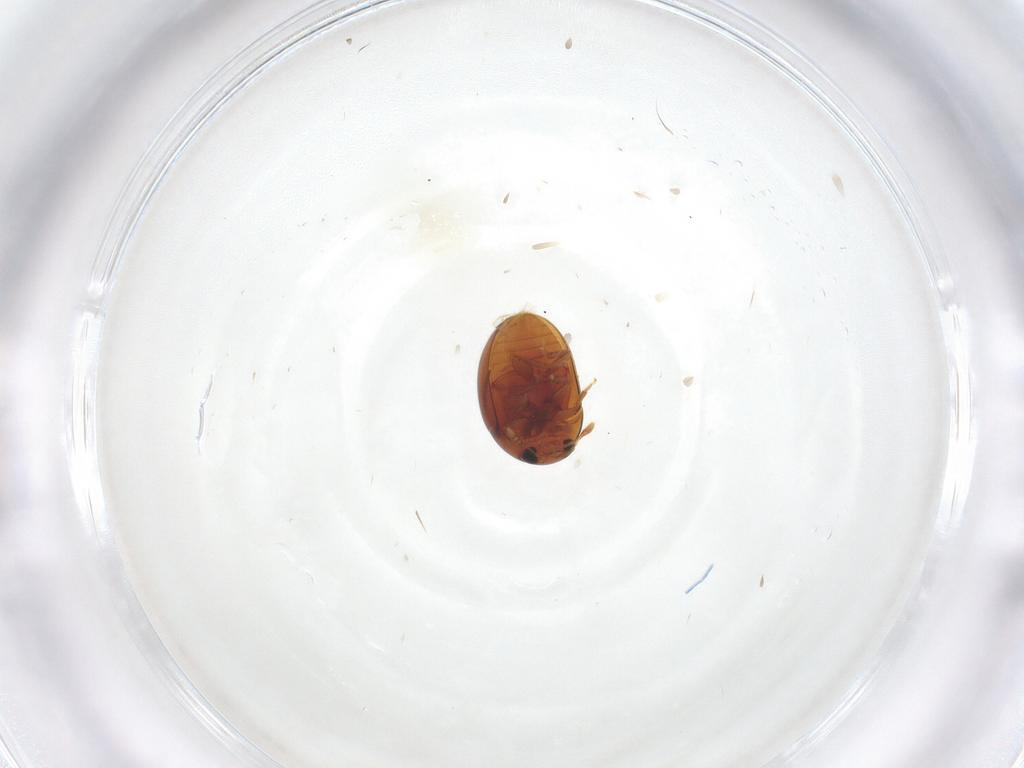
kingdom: Animalia
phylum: Arthropoda
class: Insecta
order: Coleoptera
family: Phalacridae
